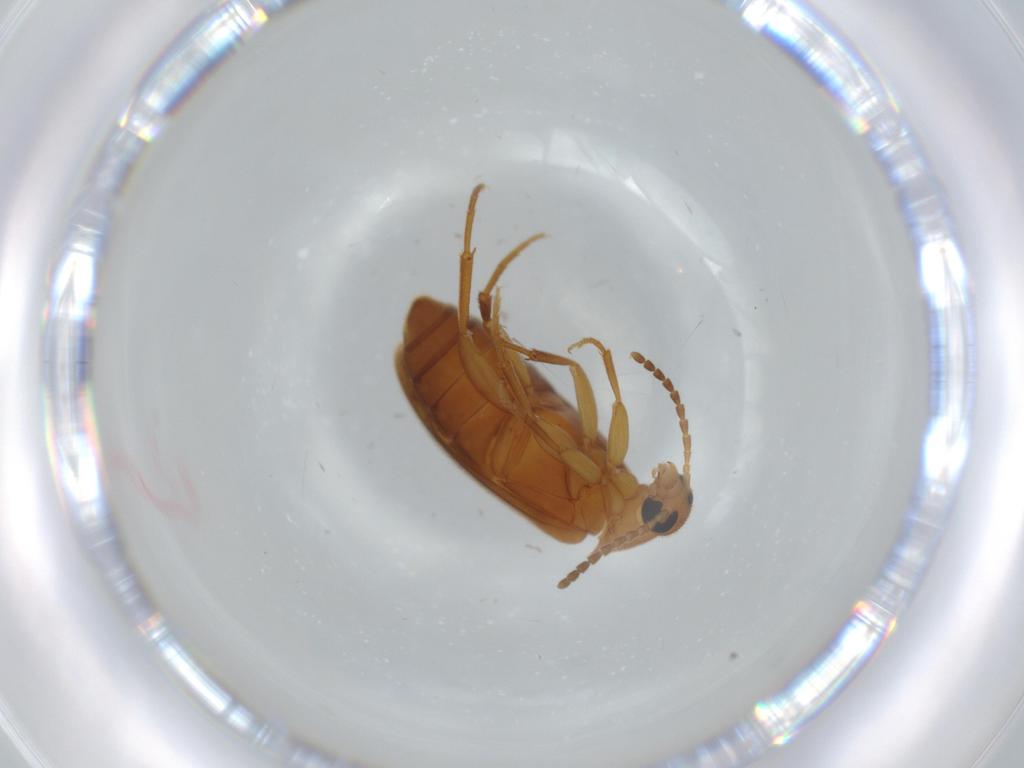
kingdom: Animalia
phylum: Arthropoda
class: Insecta
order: Coleoptera
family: Scraptiidae
